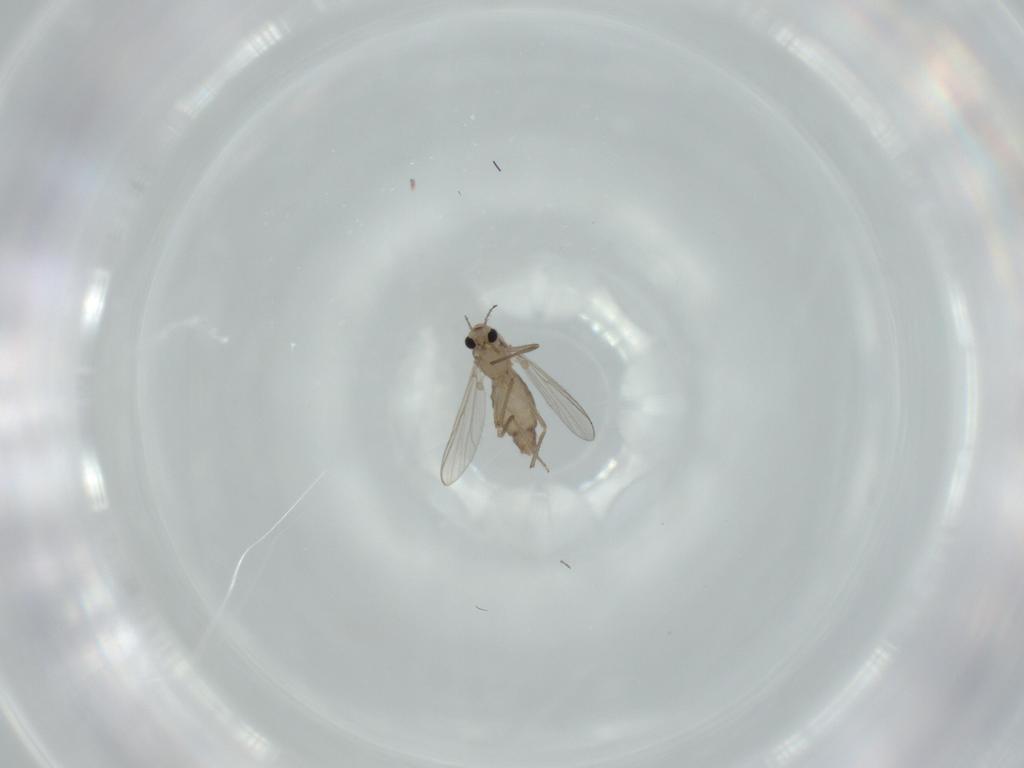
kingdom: Animalia
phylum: Arthropoda
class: Insecta
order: Diptera
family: Chironomidae
